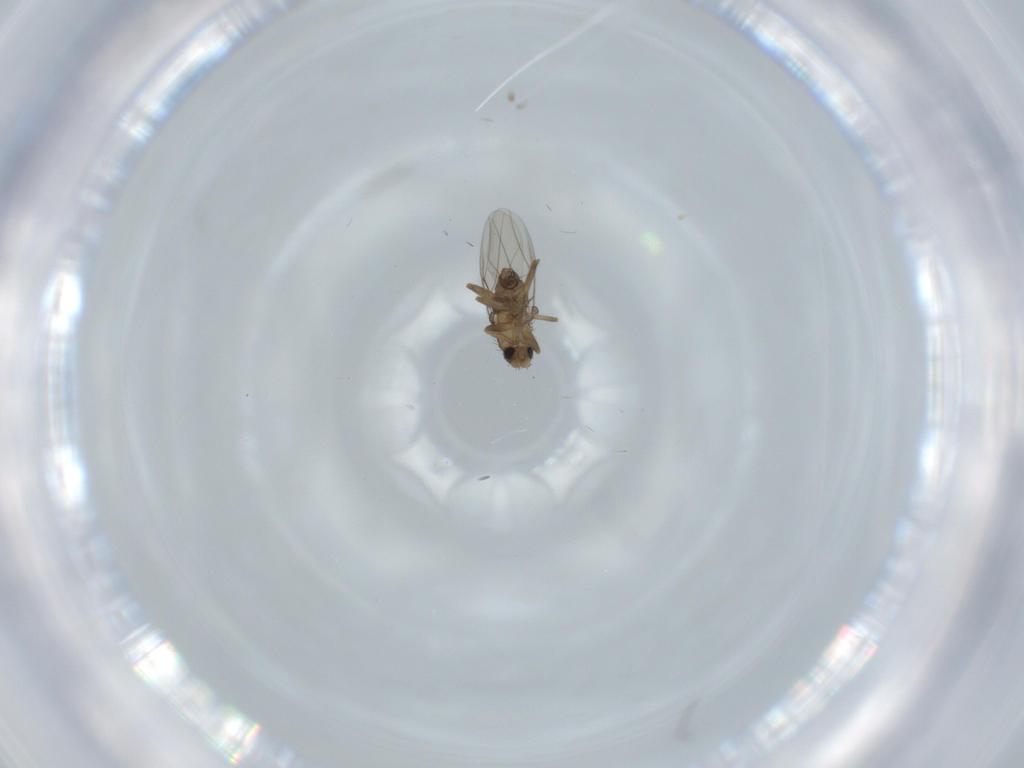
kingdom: Animalia
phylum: Arthropoda
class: Insecta
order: Diptera
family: Phoridae
